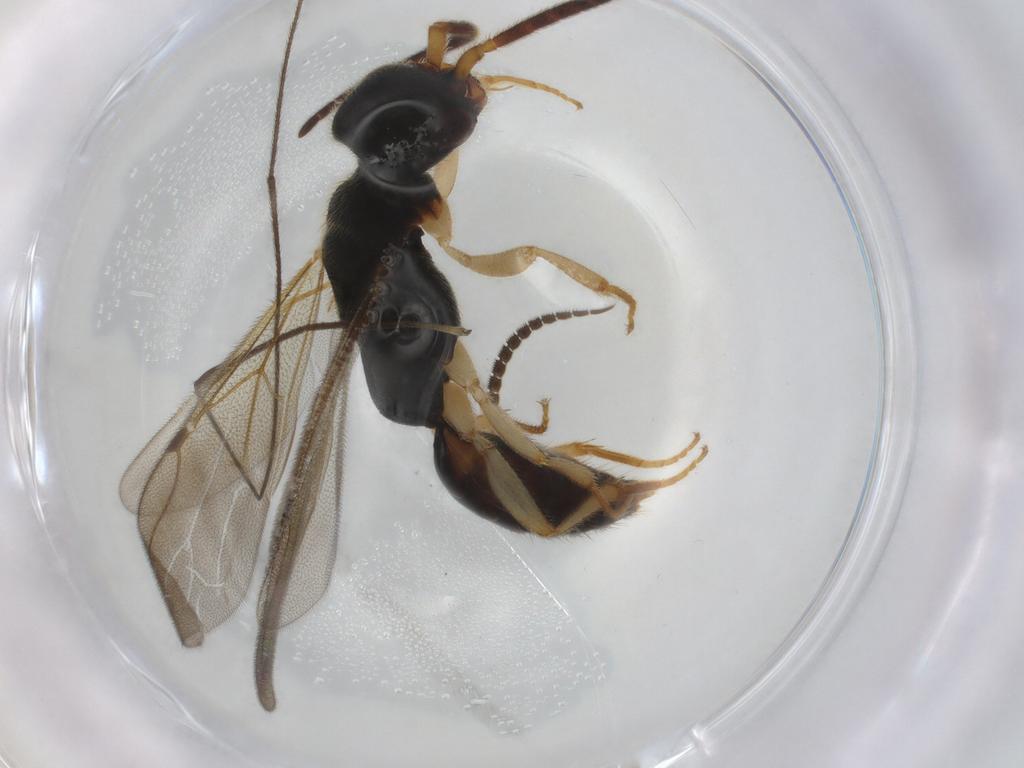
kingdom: Animalia
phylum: Arthropoda
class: Insecta
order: Hymenoptera
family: Bethylidae
